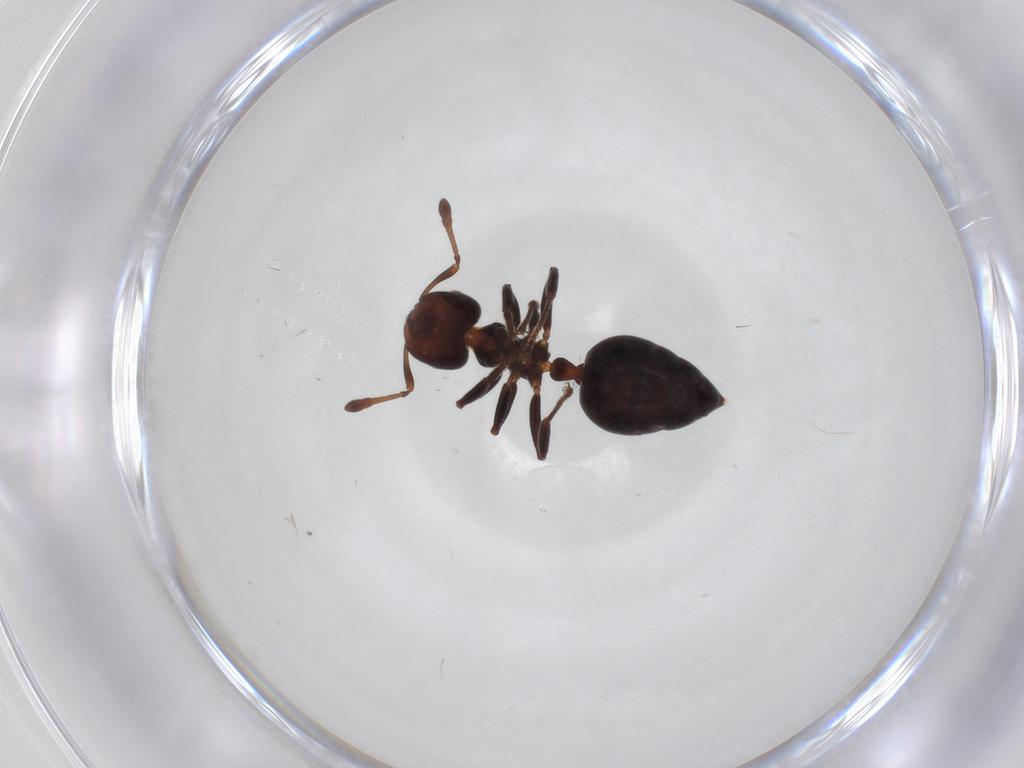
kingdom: Animalia
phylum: Arthropoda
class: Insecta
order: Hymenoptera
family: Formicidae
